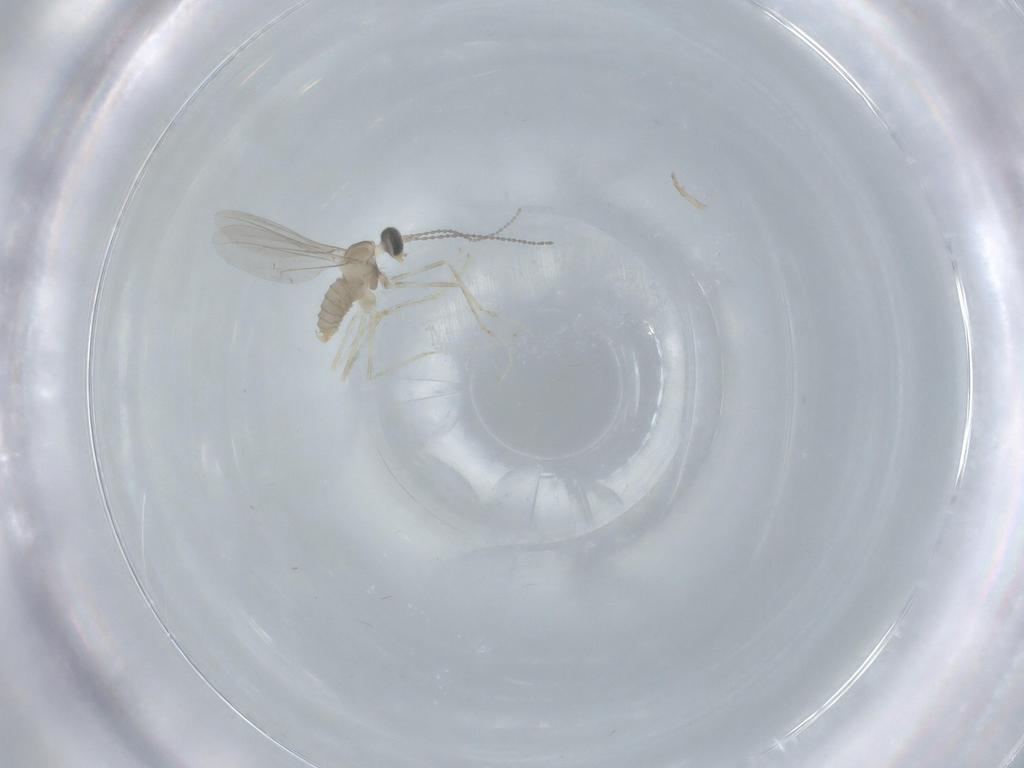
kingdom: Animalia
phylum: Arthropoda
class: Insecta
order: Diptera
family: Cecidomyiidae
